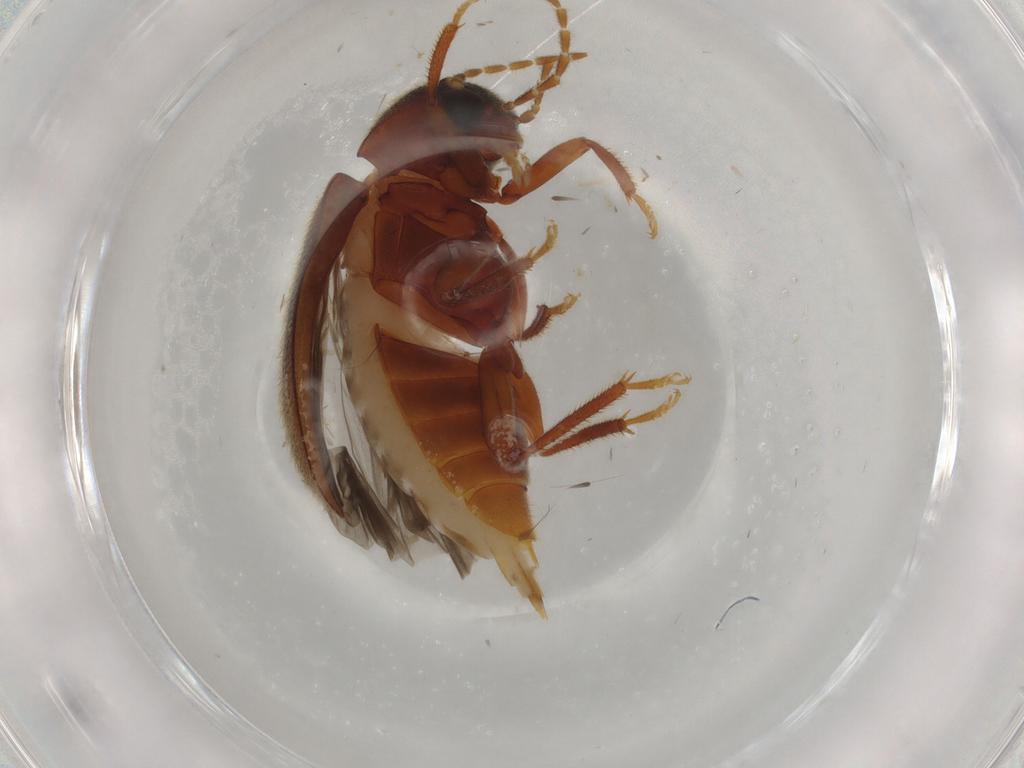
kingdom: Animalia
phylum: Arthropoda
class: Insecta
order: Coleoptera
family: Ptilodactylidae
